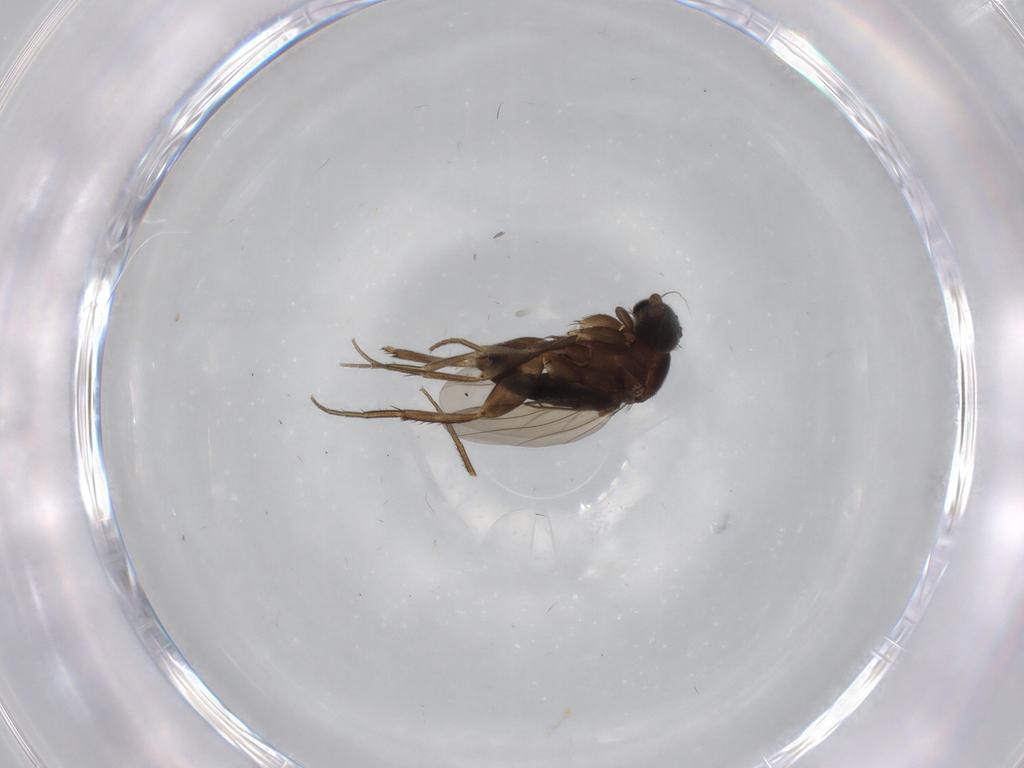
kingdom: Animalia
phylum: Arthropoda
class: Insecta
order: Diptera
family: Phoridae
